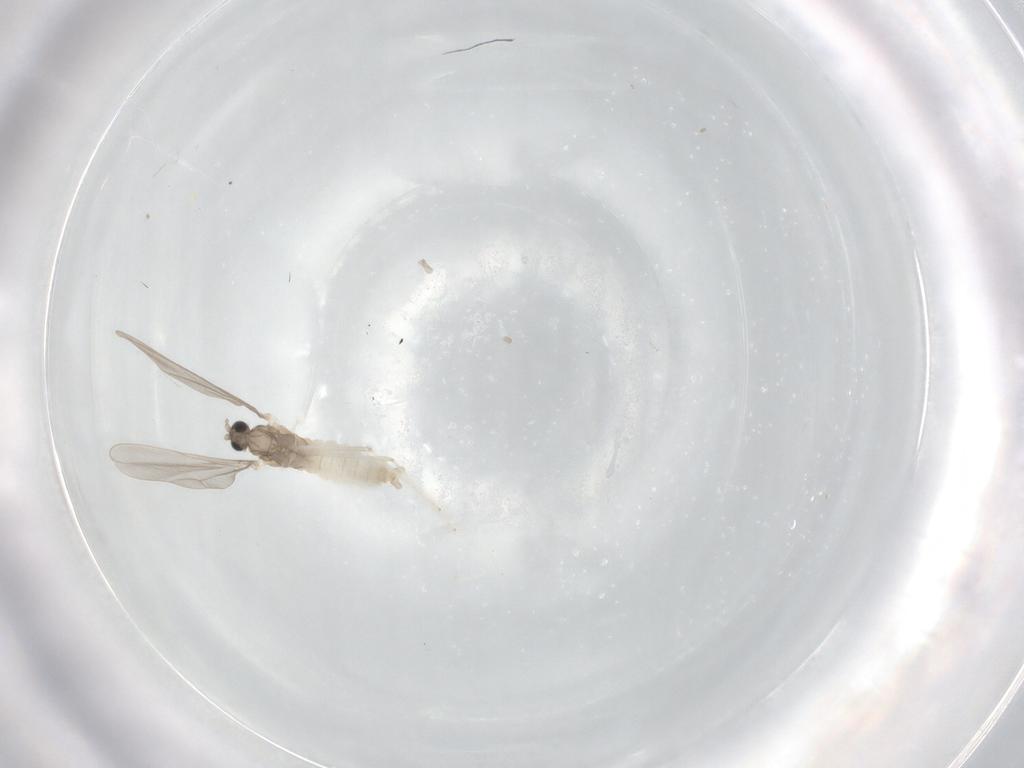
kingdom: Animalia
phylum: Arthropoda
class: Insecta
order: Diptera
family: Cecidomyiidae
